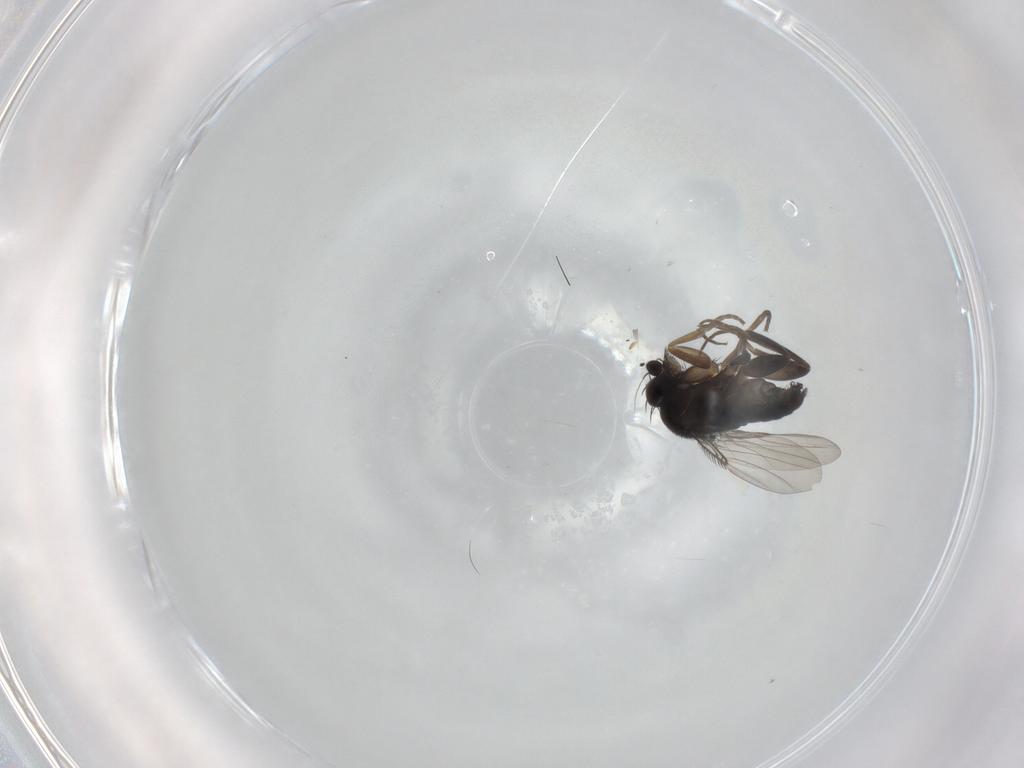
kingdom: Animalia
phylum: Arthropoda
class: Insecta
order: Diptera
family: Phoridae
